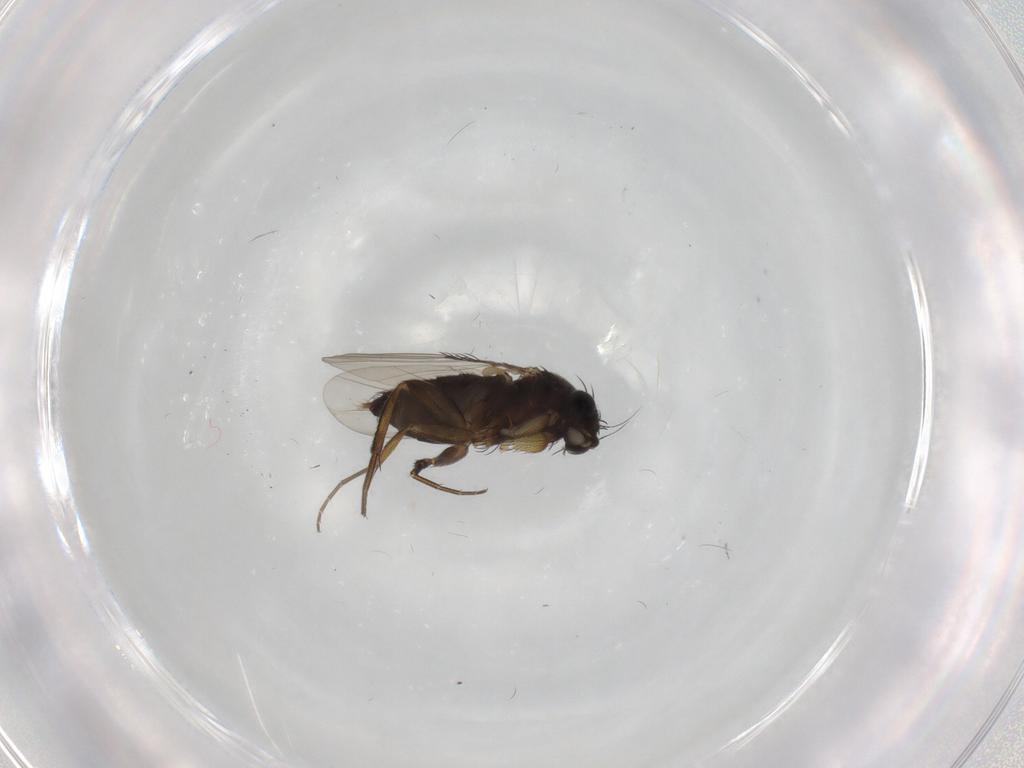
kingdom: Animalia
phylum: Arthropoda
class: Insecta
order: Diptera
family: Phoridae
